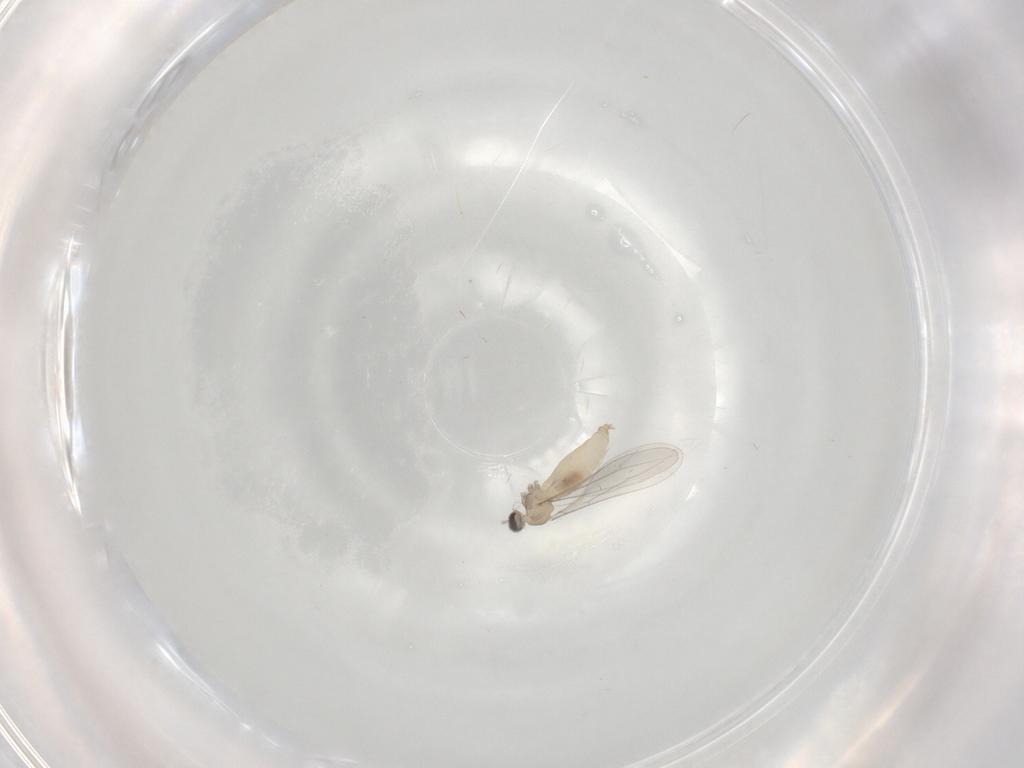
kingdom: Animalia
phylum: Arthropoda
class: Insecta
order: Diptera
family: Cecidomyiidae
